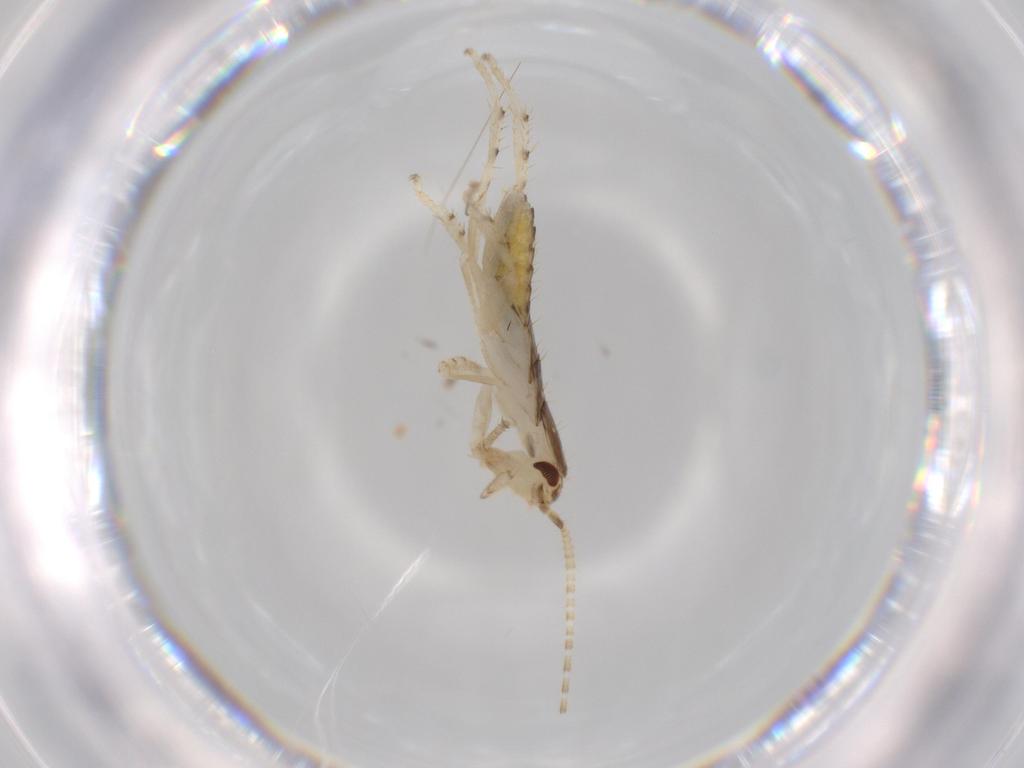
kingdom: Animalia
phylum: Arthropoda
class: Insecta
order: Blattodea
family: Ectobiidae
